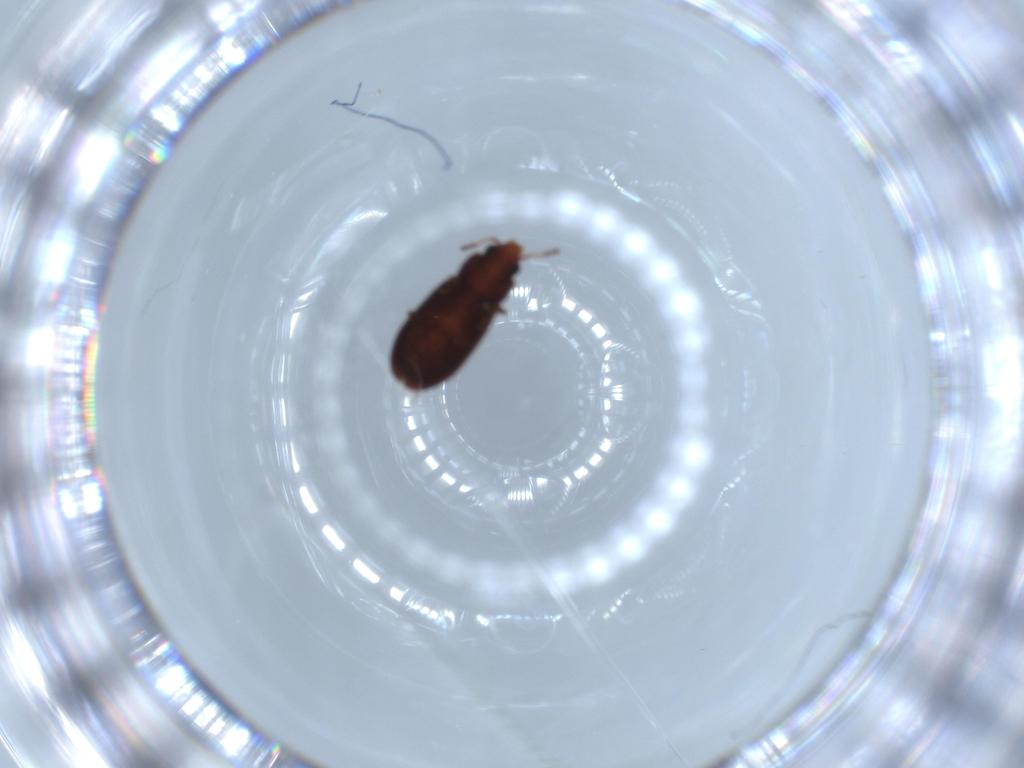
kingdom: Animalia
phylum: Arthropoda
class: Insecta
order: Coleoptera
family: Laemophloeidae
